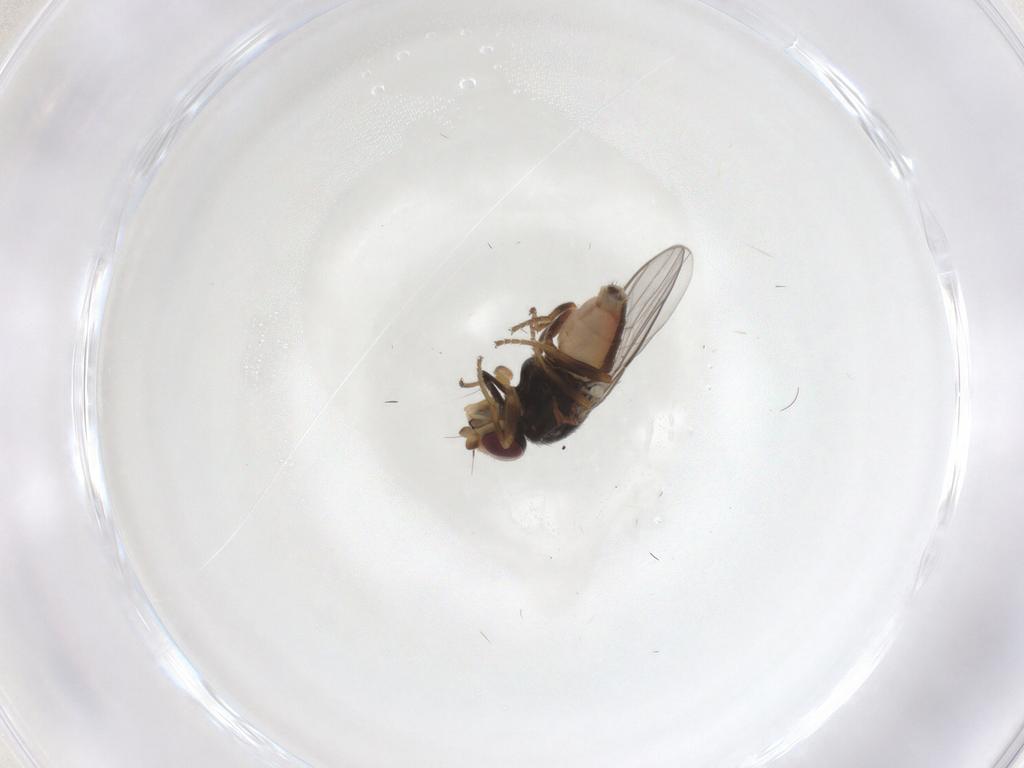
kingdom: Animalia
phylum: Arthropoda
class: Insecta
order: Diptera
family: Chloropidae
